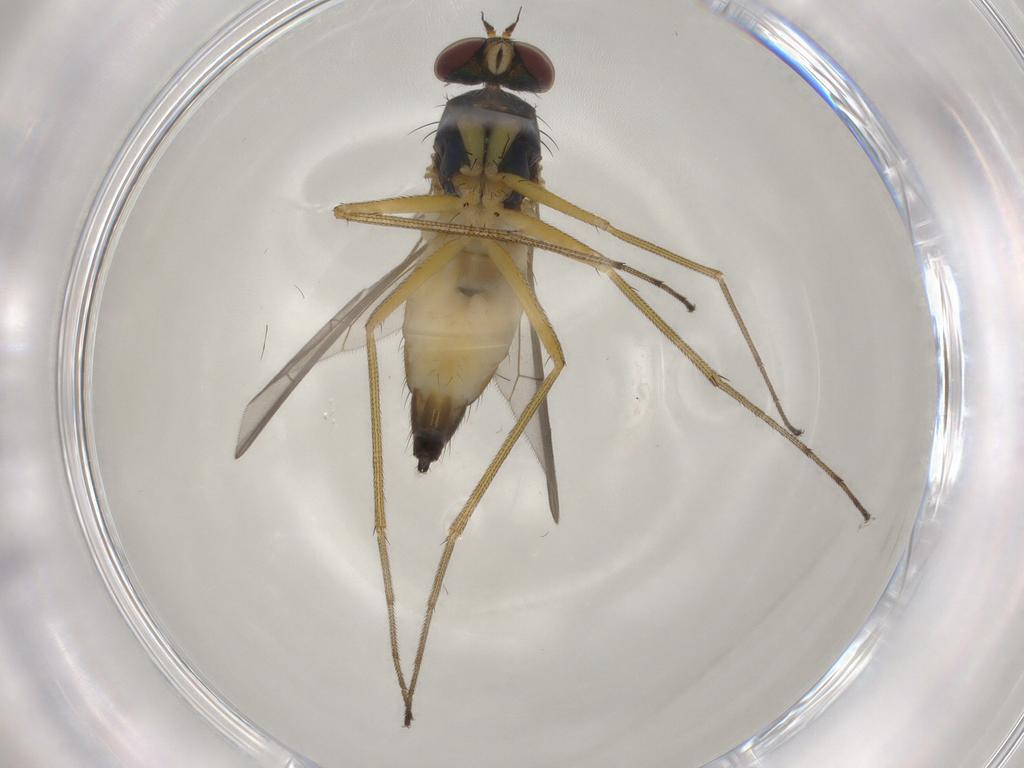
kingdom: Animalia
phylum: Arthropoda
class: Insecta
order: Diptera
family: Dolichopodidae
